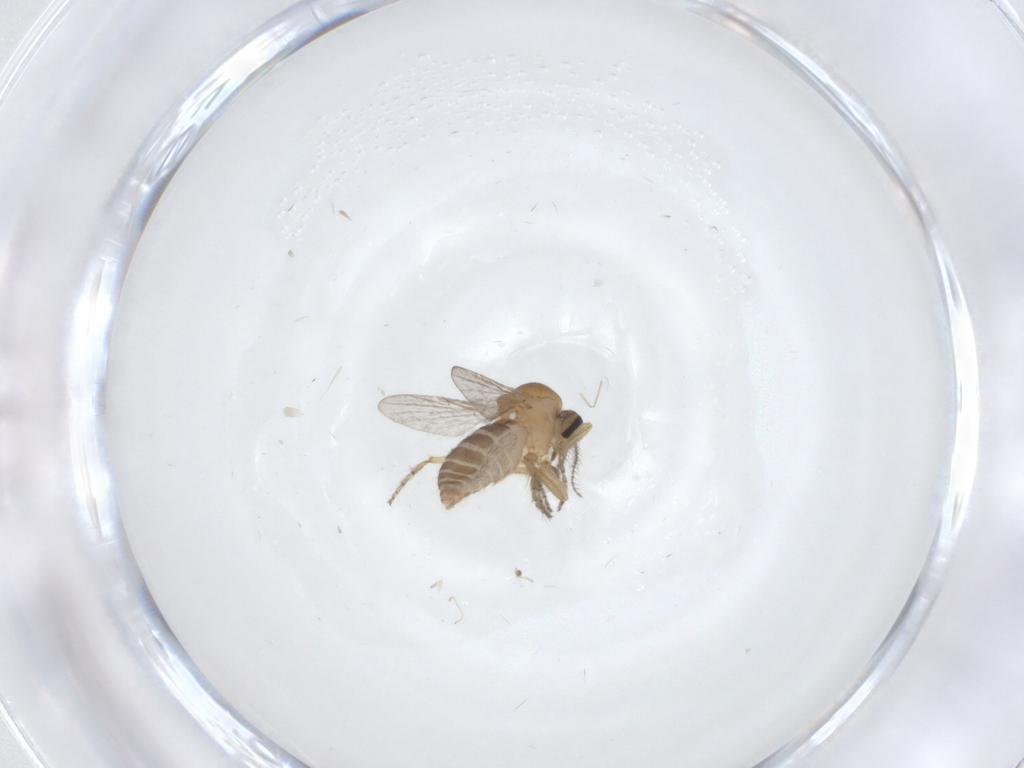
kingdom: Animalia
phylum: Arthropoda
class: Insecta
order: Diptera
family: Ceratopogonidae
